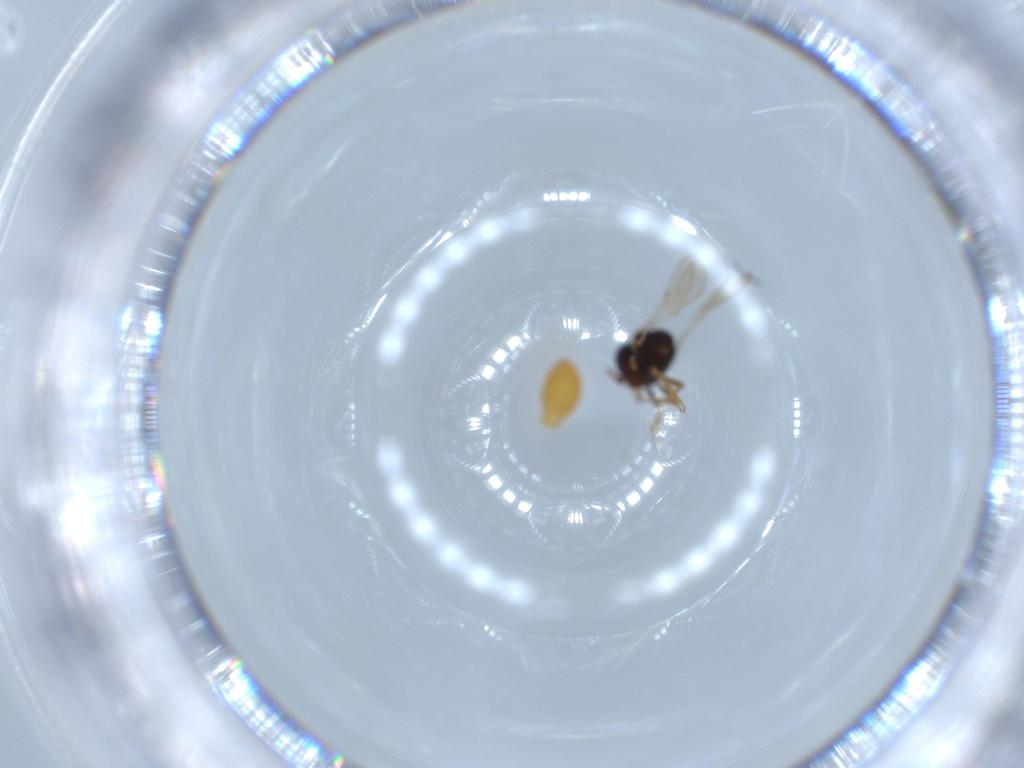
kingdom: Animalia
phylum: Arthropoda
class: Insecta
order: Hymenoptera
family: Scelionidae
